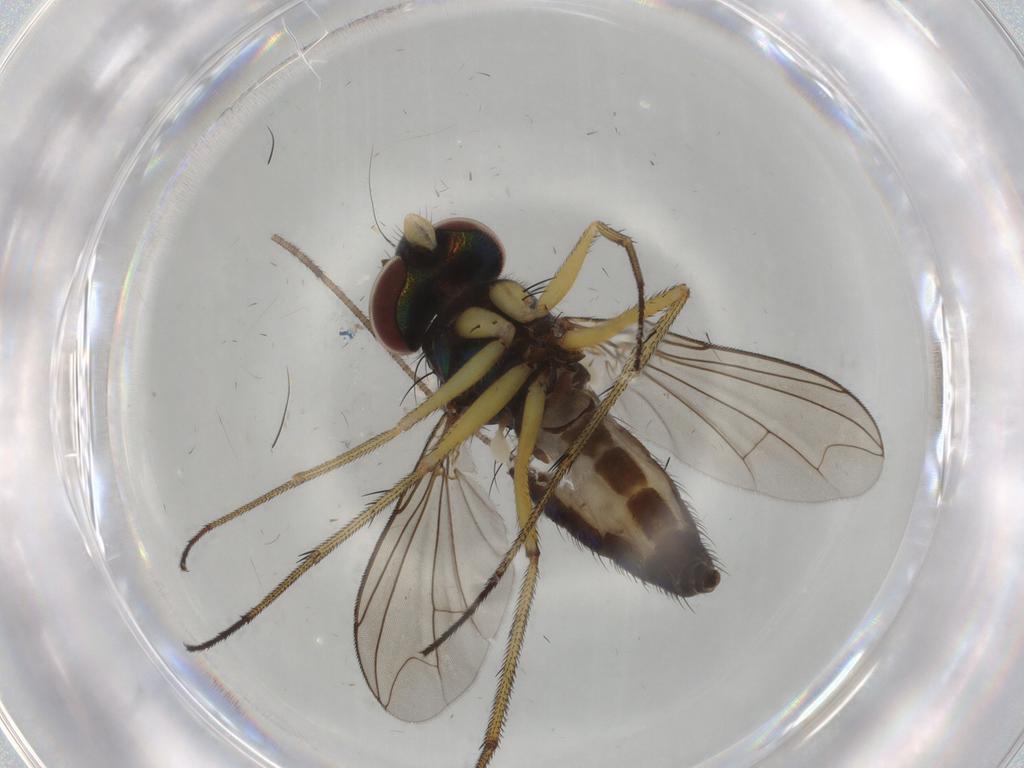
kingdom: Animalia
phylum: Arthropoda
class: Insecta
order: Diptera
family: Dolichopodidae
